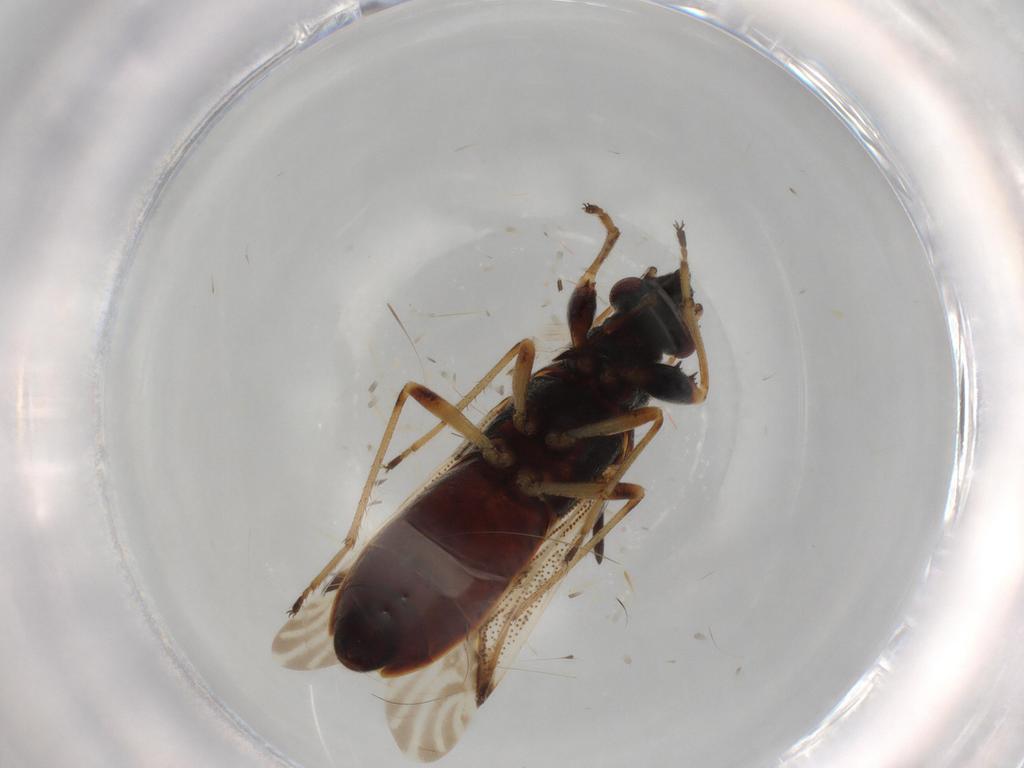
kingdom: Animalia
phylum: Arthropoda
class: Insecta
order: Hemiptera
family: Rhyparochromidae
